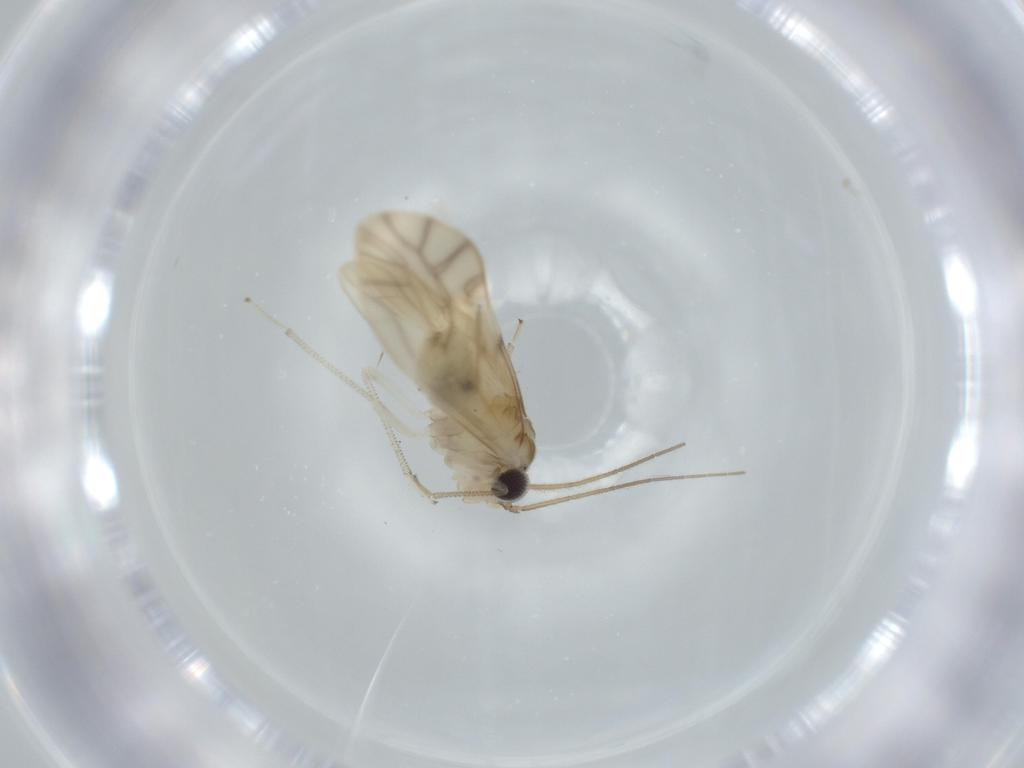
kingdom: Animalia
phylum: Arthropoda
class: Insecta
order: Psocodea
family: Caeciliusidae
